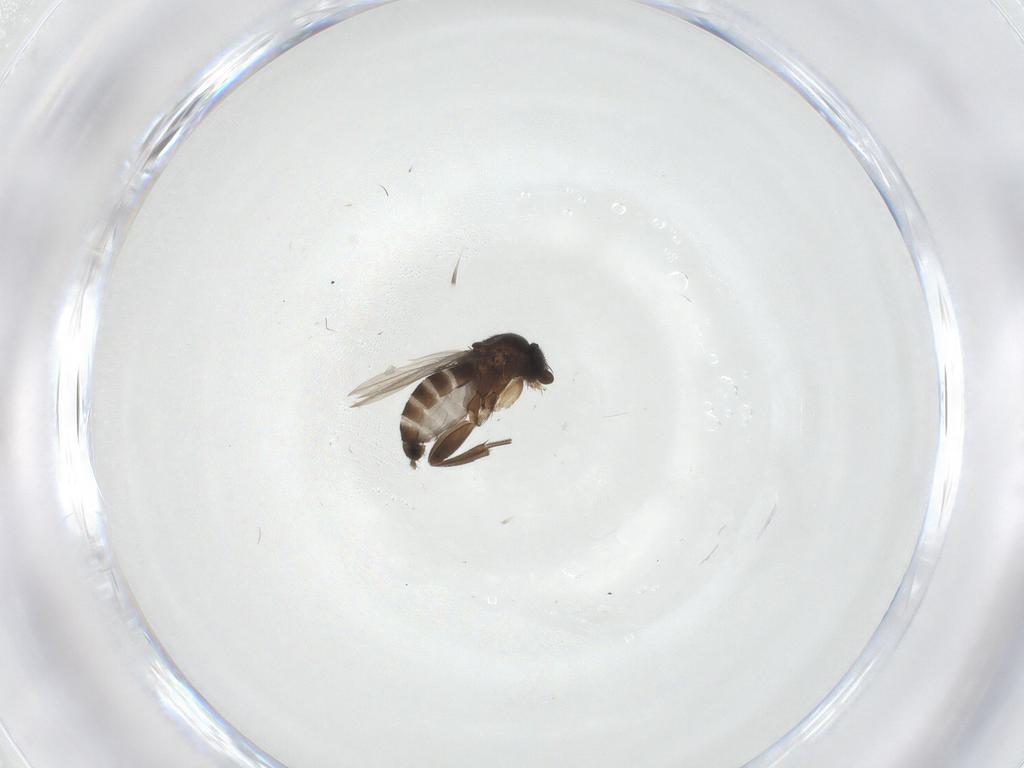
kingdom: Animalia
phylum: Arthropoda
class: Insecta
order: Diptera
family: Phoridae
